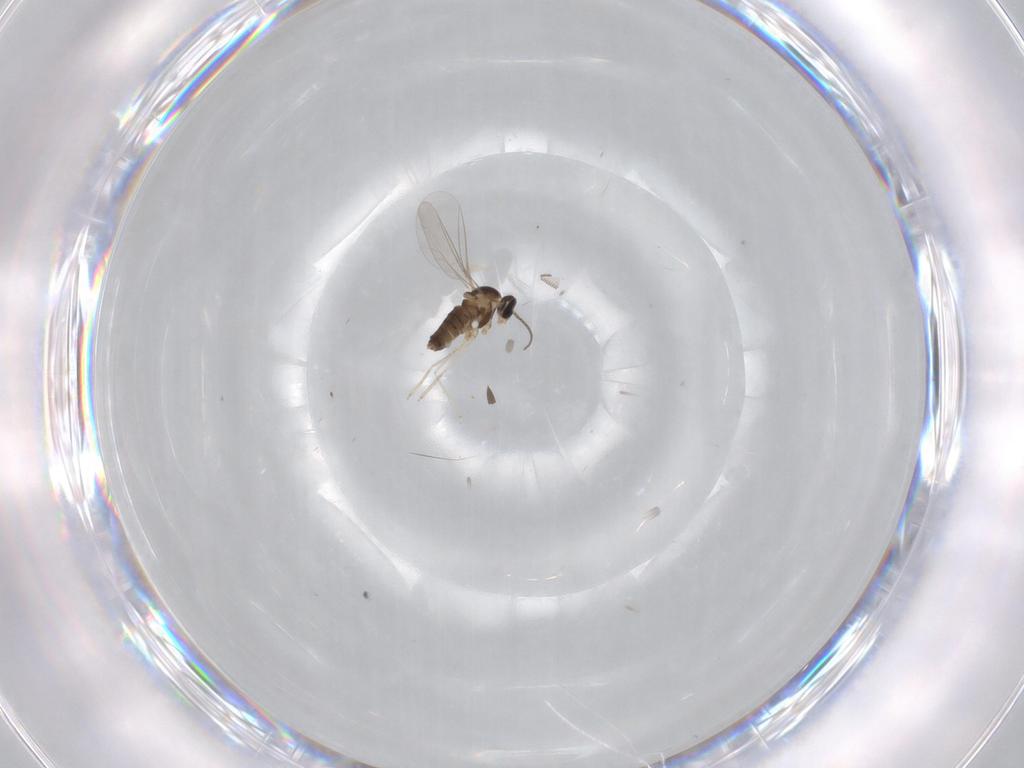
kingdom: Animalia
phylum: Arthropoda
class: Insecta
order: Diptera
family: Cecidomyiidae
